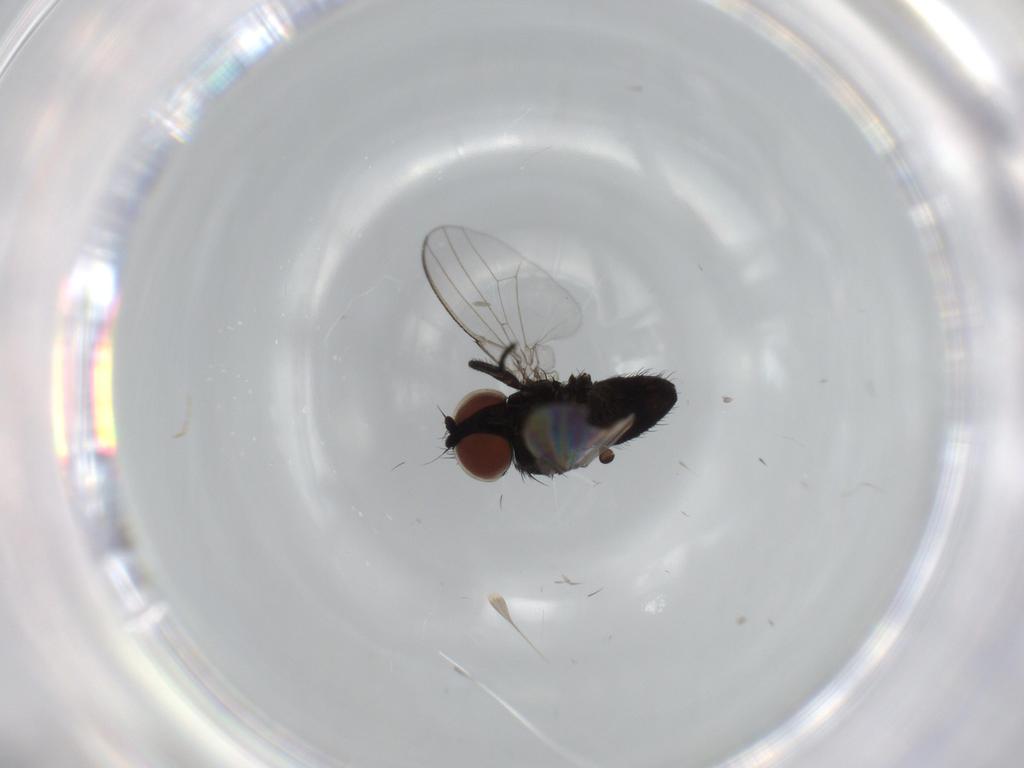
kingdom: Animalia
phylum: Arthropoda
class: Insecta
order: Diptera
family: Milichiidae
